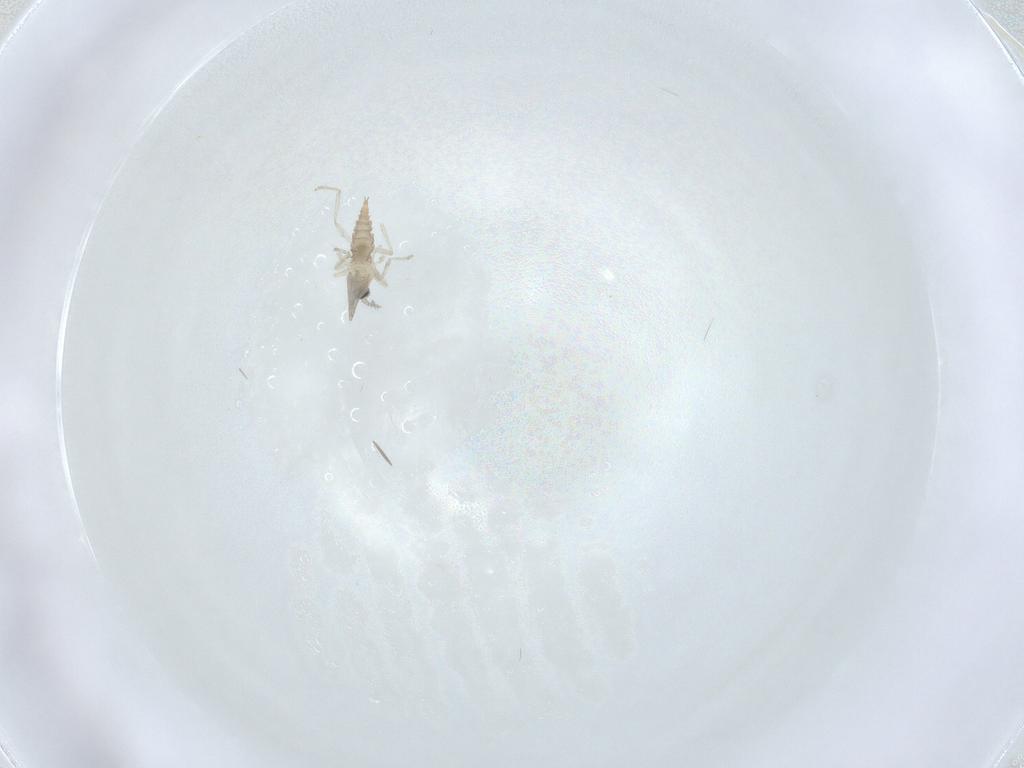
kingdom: Animalia
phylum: Arthropoda
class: Insecta
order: Diptera
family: Cecidomyiidae
